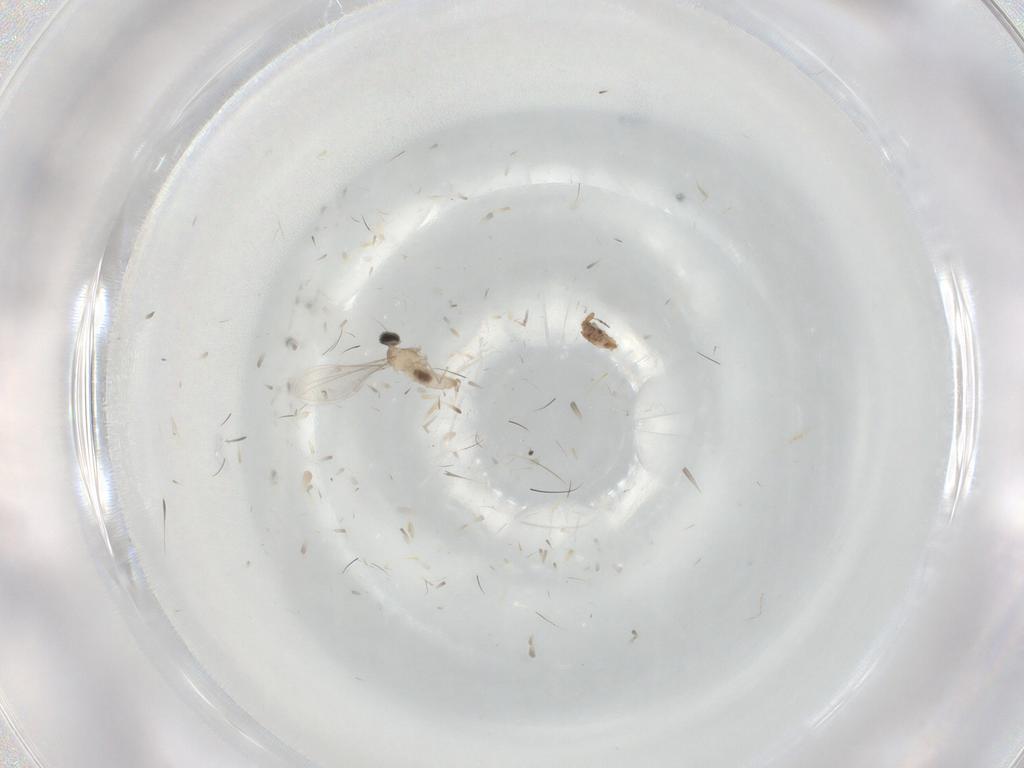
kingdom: Animalia
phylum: Arthropoda
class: Insecta
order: Diptera
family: Cecidomyiidae
